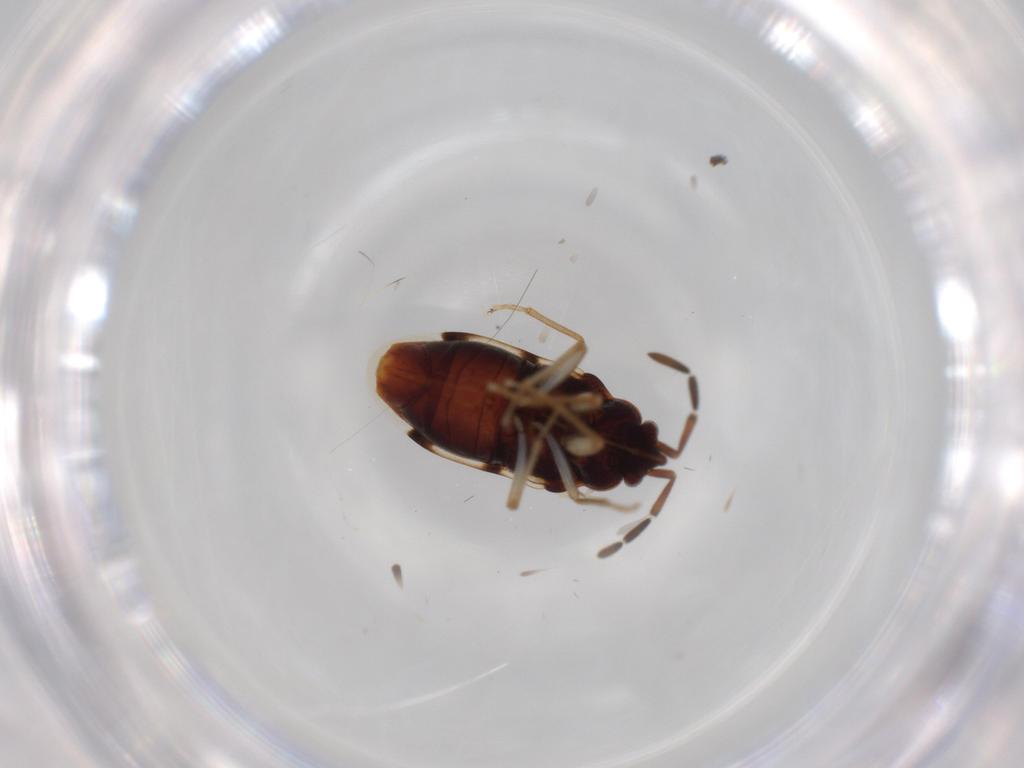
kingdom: Animalia
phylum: Arthropoda
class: Insecta
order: Hemiptera
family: Rhyparochromidae
